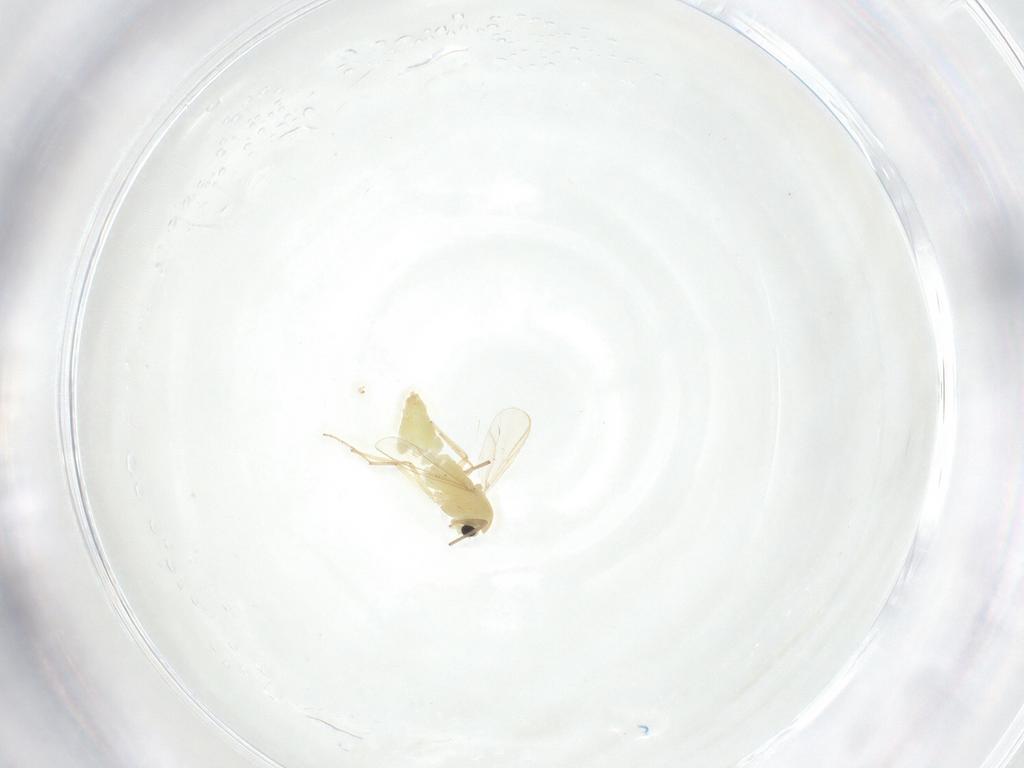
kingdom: Animalia
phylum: Arthropoda
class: Insecta
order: Diptera
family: Chironomidae
